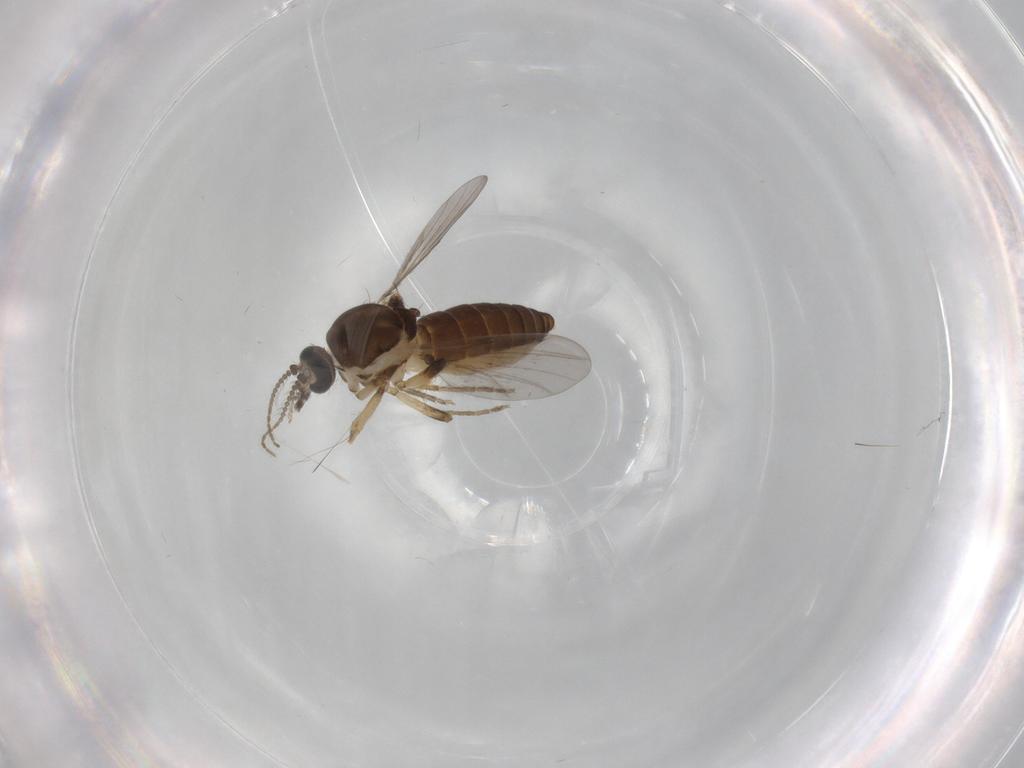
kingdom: Animalia
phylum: Arthropoda
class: Insecta
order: Diptera
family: Ceratopogonidae
